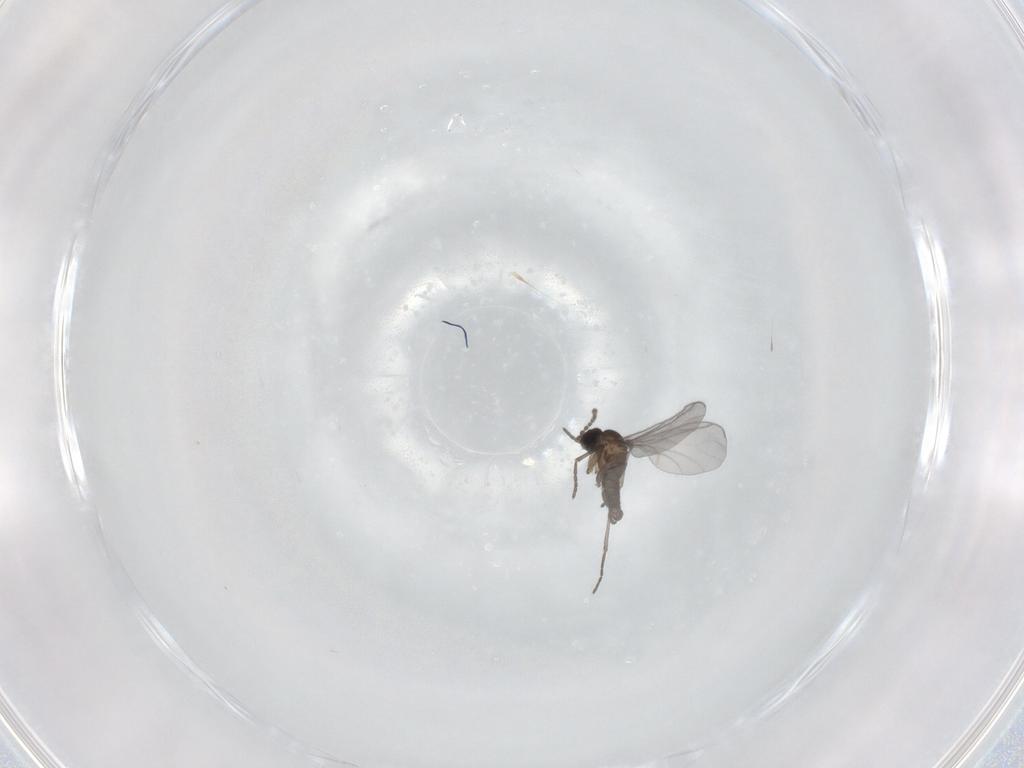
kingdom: Animalia
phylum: Arthropoda
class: Insecta
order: Diptera
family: Sciaridae
